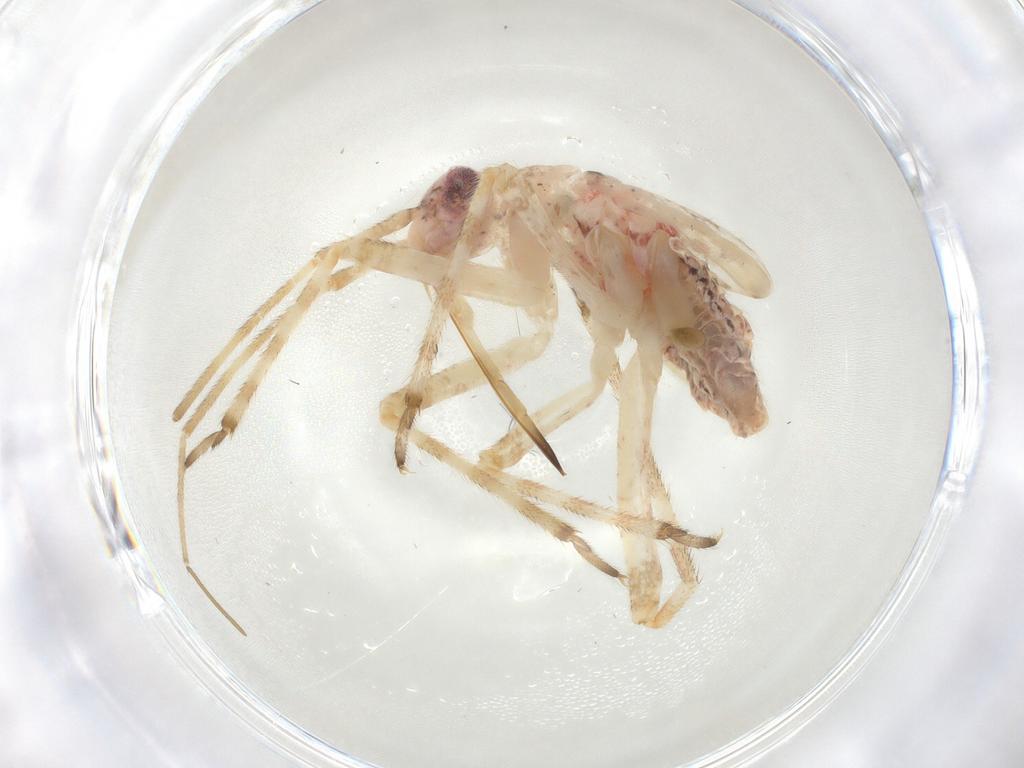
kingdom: Animalia
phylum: Arthropoda
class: Insecta
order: Hemiptera
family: Miridae
